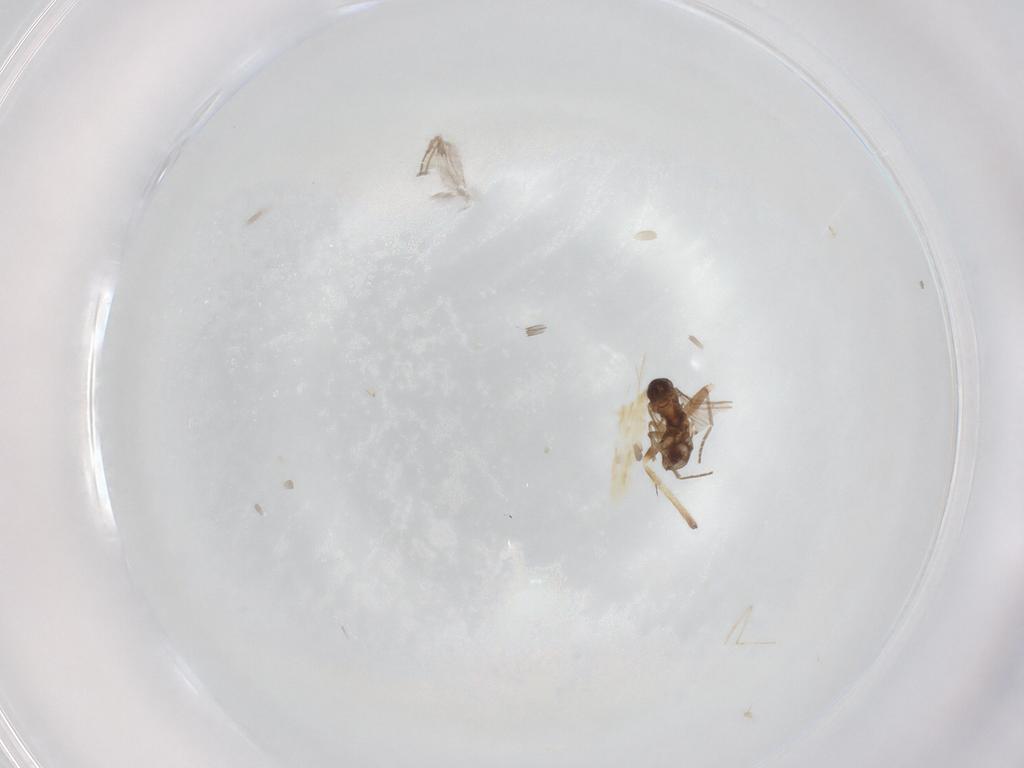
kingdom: Animalia
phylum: Arthropoda
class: Insecta
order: Diptera
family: Sciaridae
